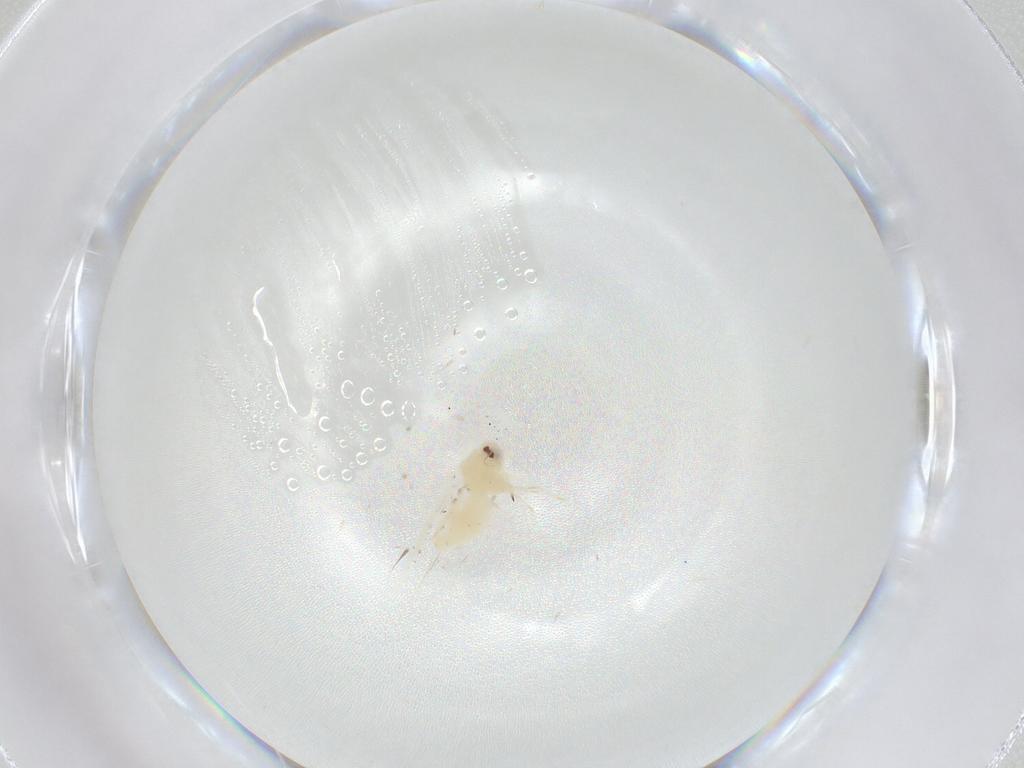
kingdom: Animalia
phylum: Arthropoda
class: Insecta
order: Hemiptera
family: Aleyrodidae
